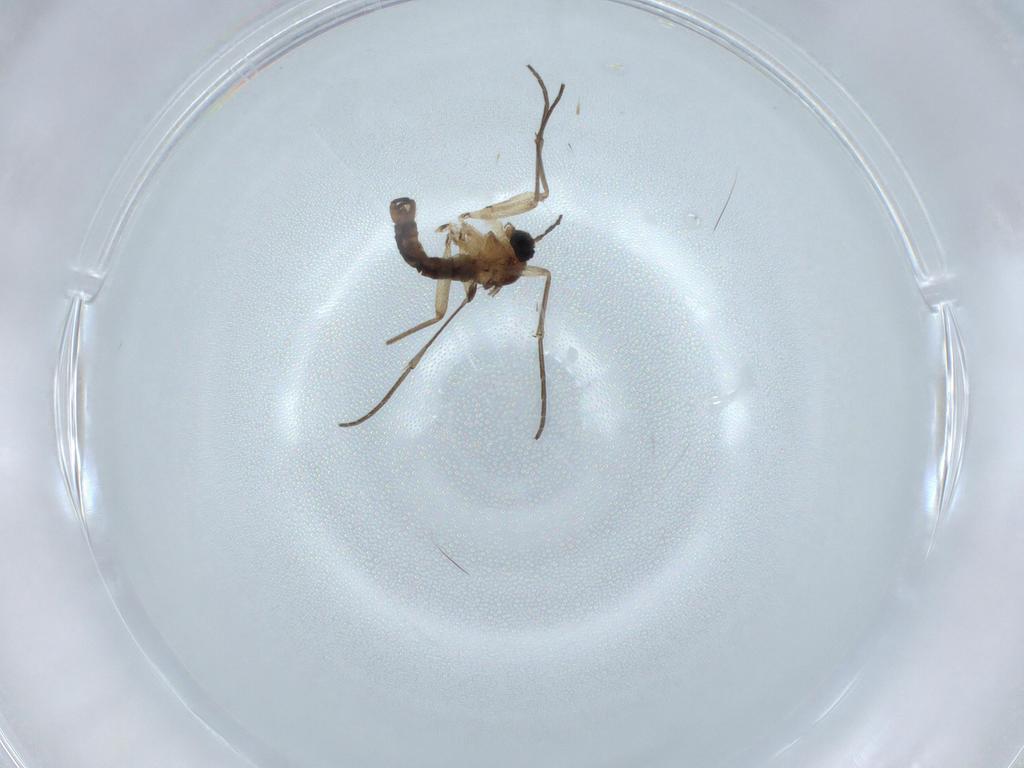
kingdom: Animalia
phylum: Arthropoda
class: Insecta
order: Diptera
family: Sciaridae
